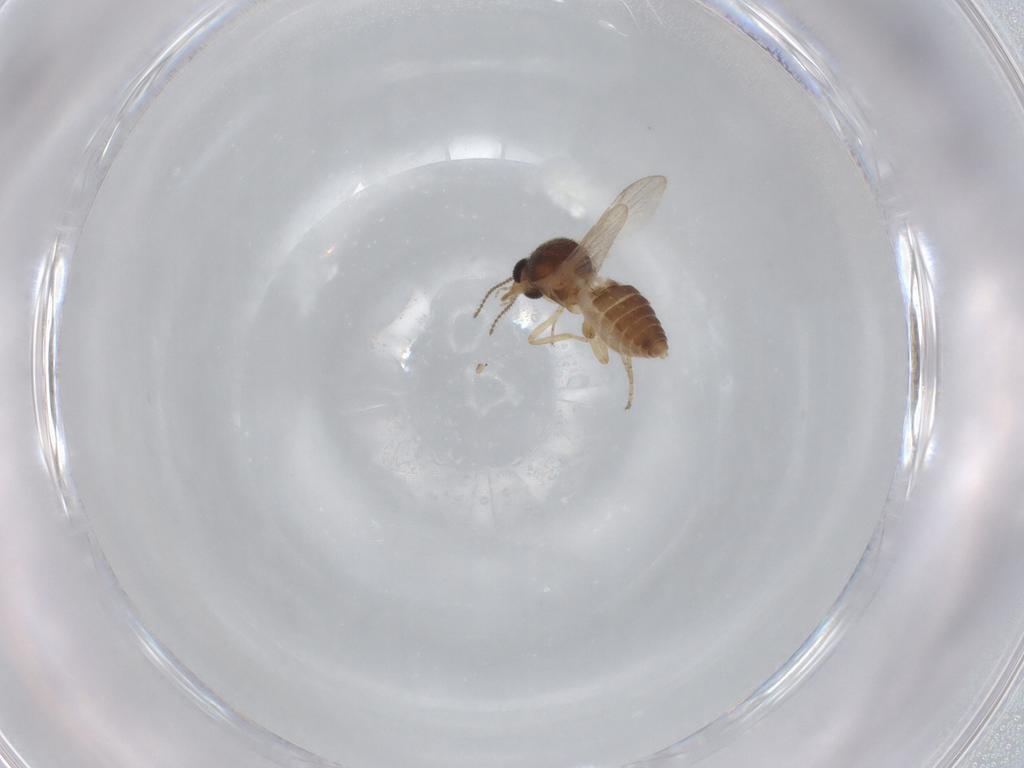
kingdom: Animalia
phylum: Arthropoda
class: Insecta
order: Diptera
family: Ceratopogonidae
